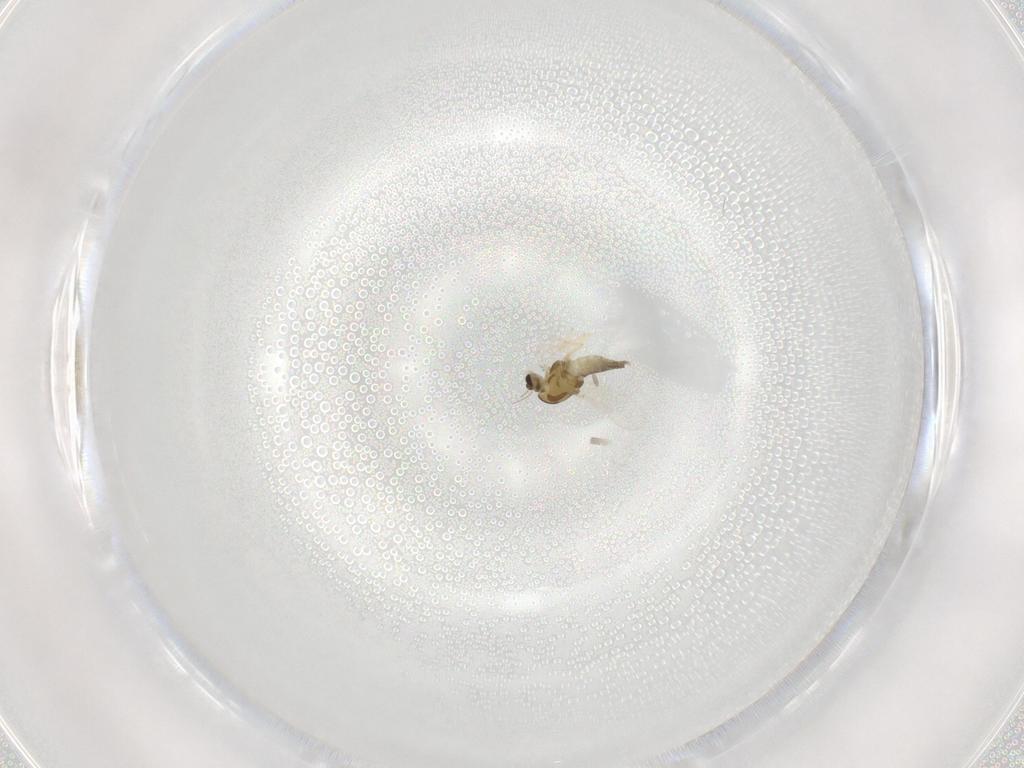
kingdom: Animalia
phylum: Arthropoda
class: Insecta
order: Diptera
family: Chironomidae
